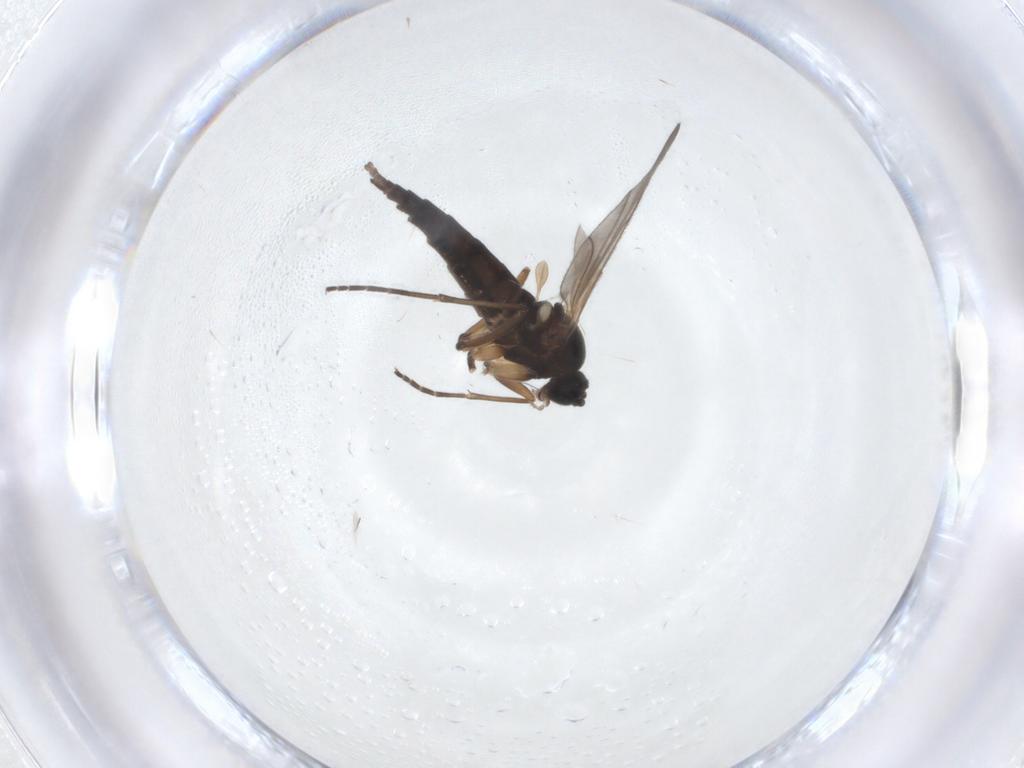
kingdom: Animalia
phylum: Arthropoda
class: Insecta
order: Diptera
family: Sciaridae
